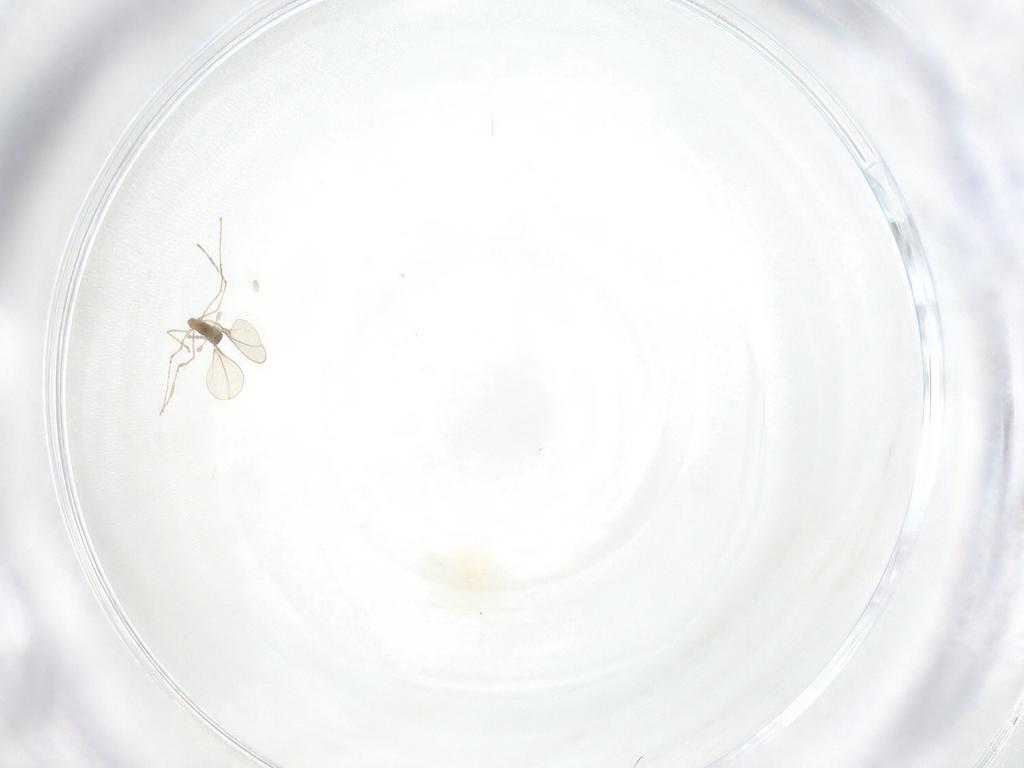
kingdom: Animalia
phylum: Arthropoda
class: Insecta
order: Diptera
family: Cecidomyiidae
